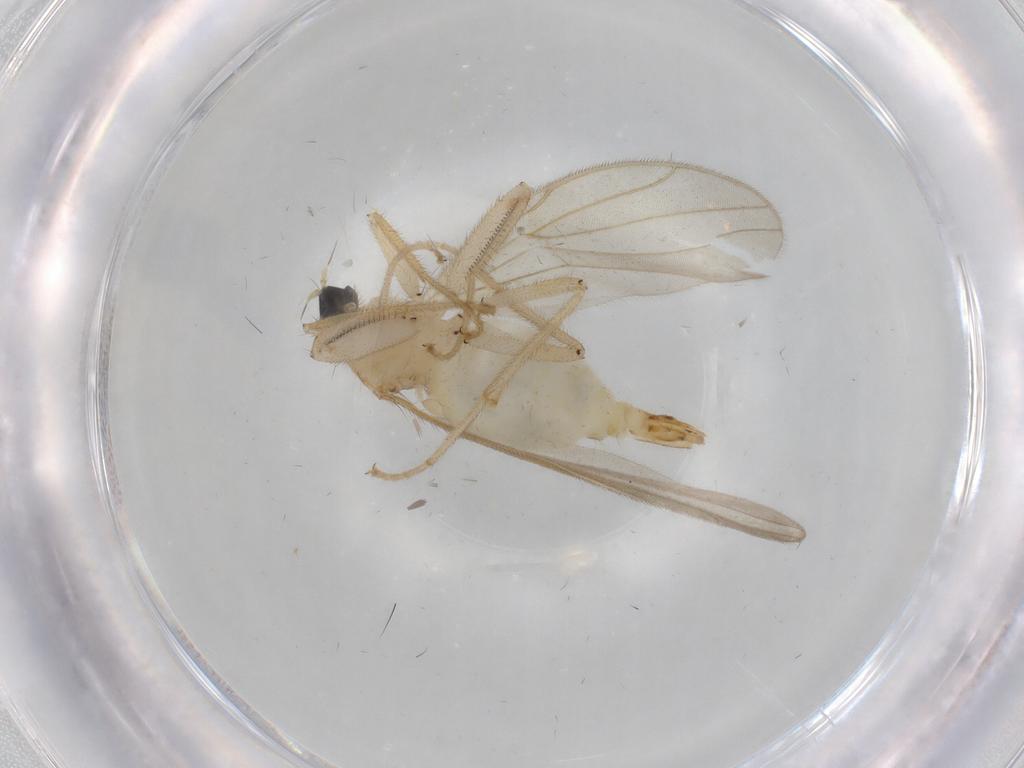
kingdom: Animalia
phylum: Arthropoda
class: Insecta
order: Diptera
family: Hybotidae
